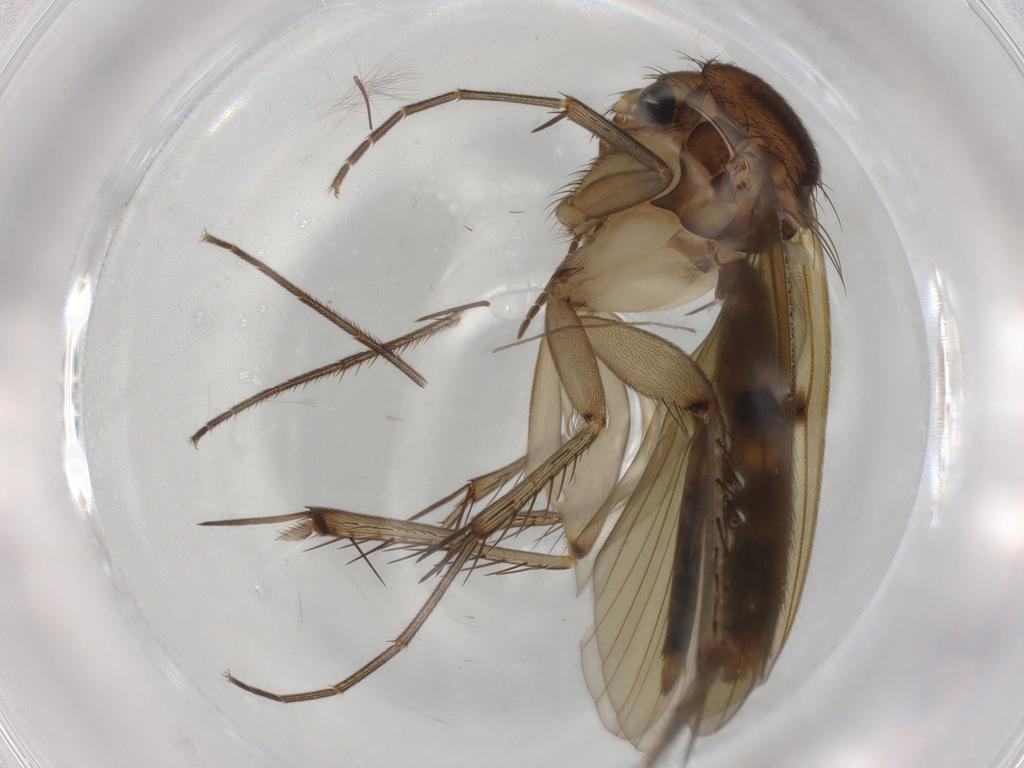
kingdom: Animalia
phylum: Arthropoda
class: Insecta
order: Diptera
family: Mycetophilidae
